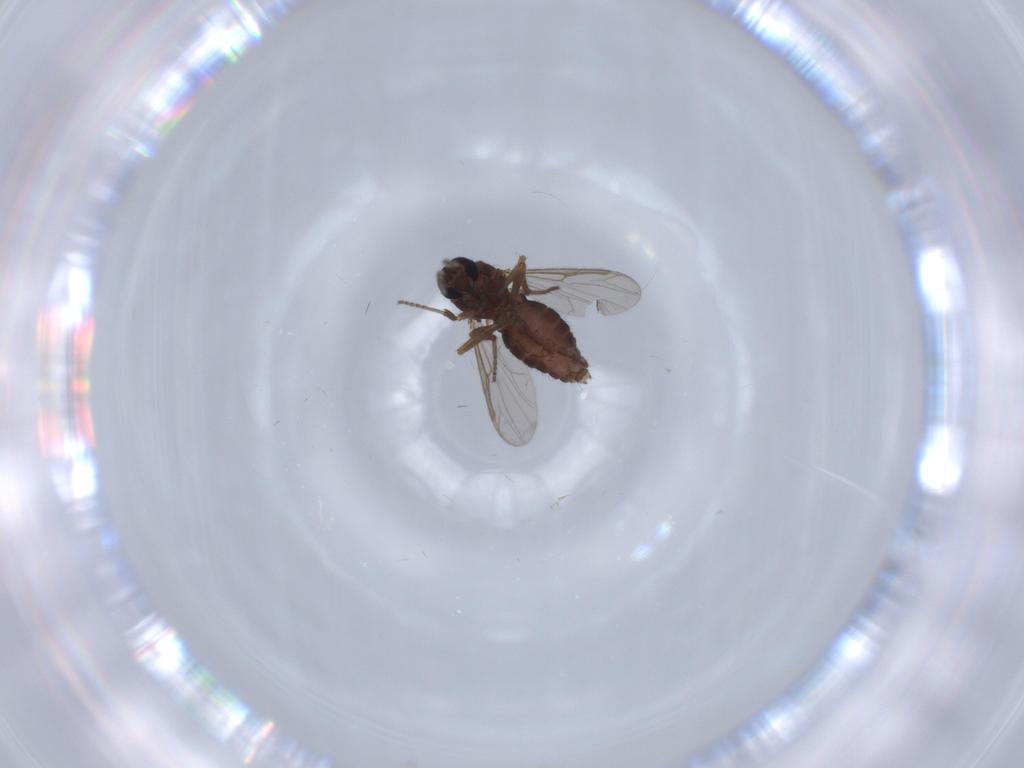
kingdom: Animalia
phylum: Arthropoda
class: Insecta
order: Diptera
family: Ceratopogonidae
